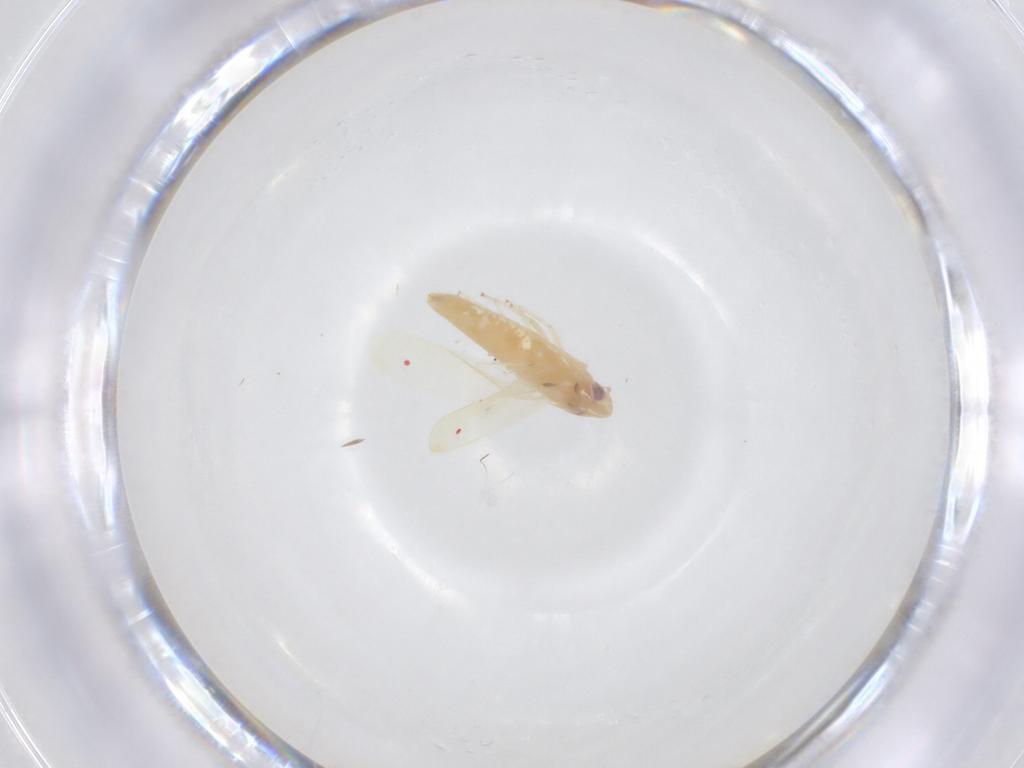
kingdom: Animalia
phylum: Arthropoda
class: Insecta
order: Hemiptera
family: Cicadellidae
